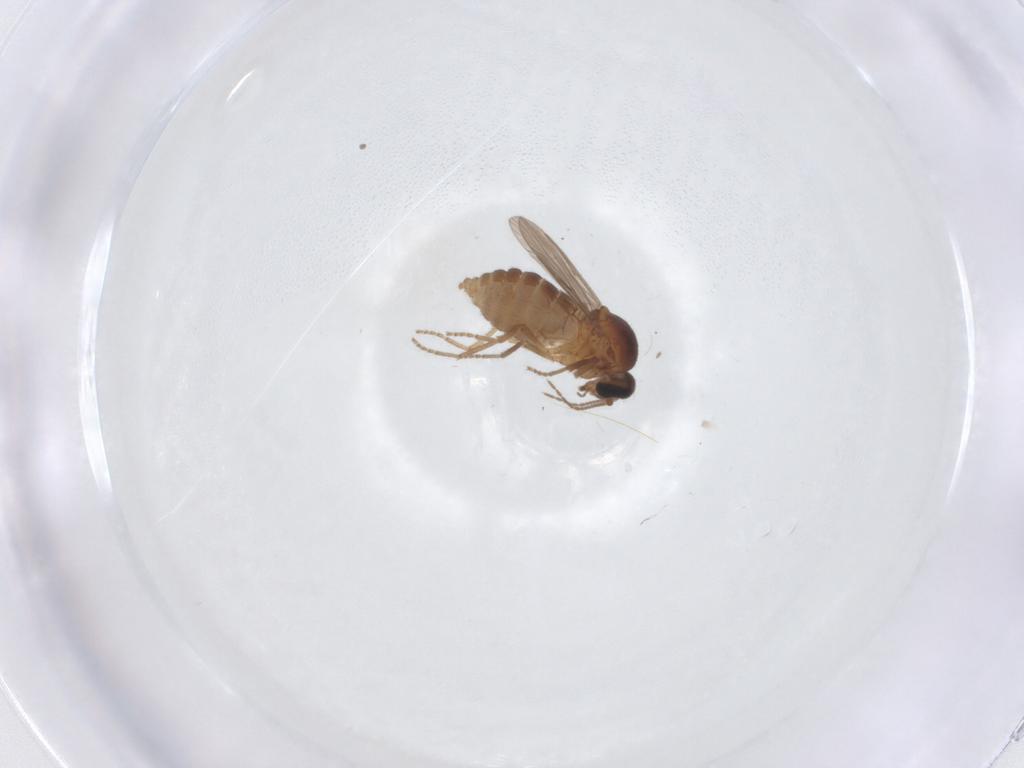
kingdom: Animalia
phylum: Arthropoda
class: Insecta
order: Diptera
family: Ceratopogonidae
